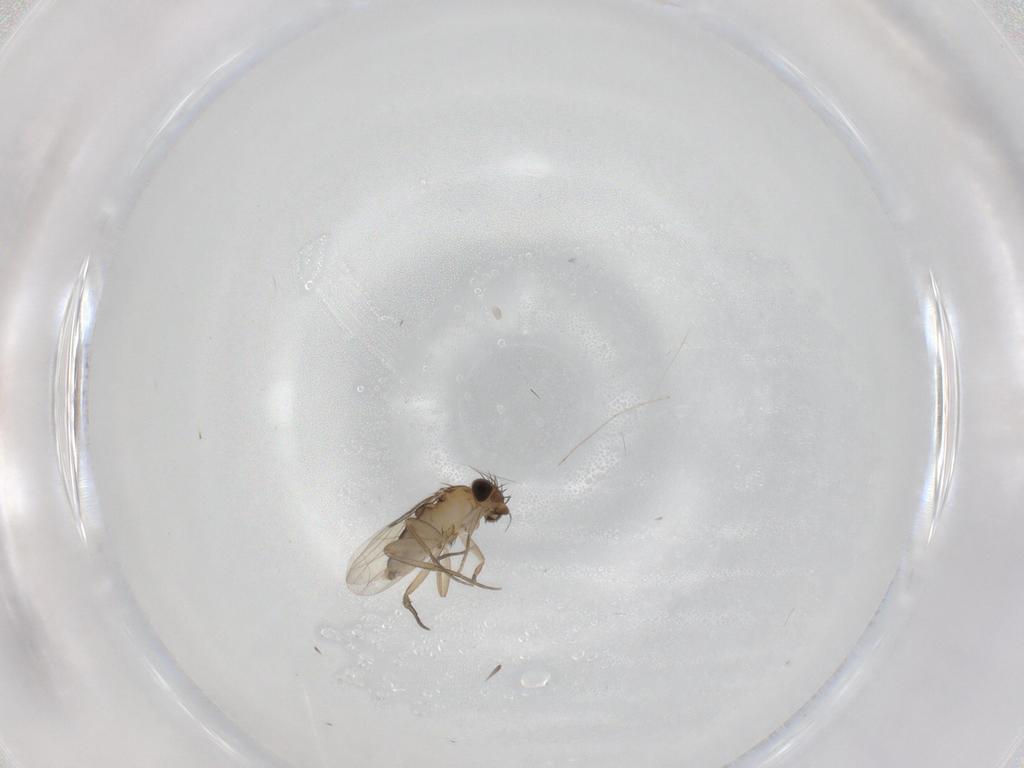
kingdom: Animalia
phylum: Arthropoda
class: Insecta
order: Diptera
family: Phoridae
